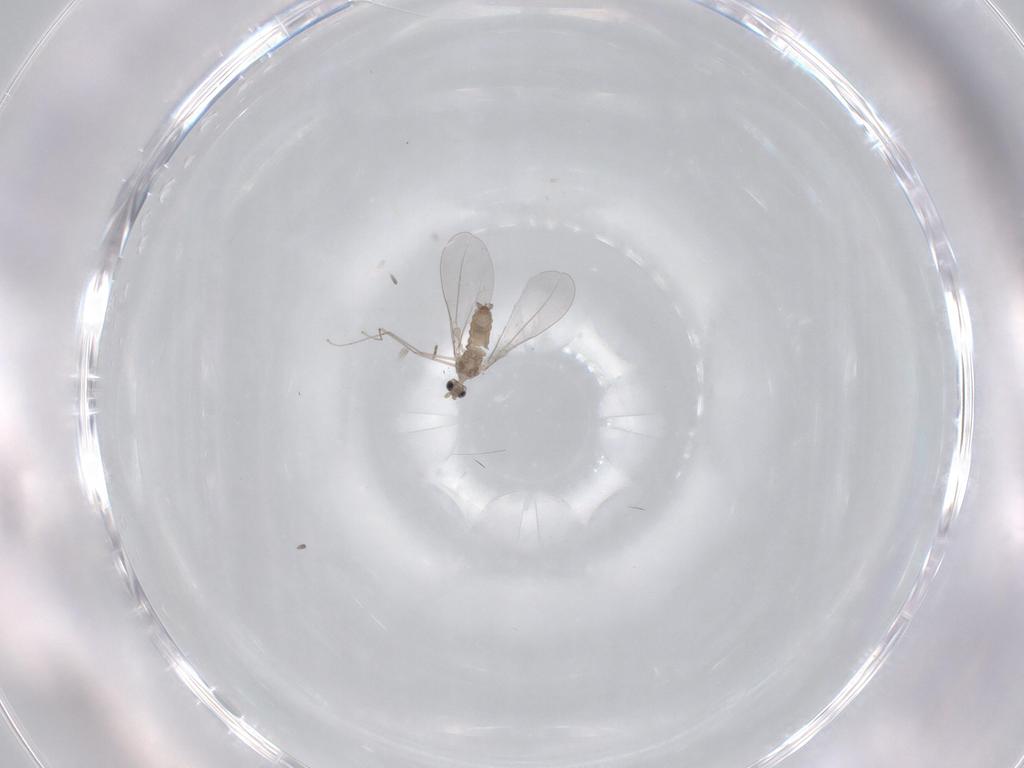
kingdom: Animalia
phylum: Arthropoda
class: Insecta
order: Diptera
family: Cecidomyiidae
